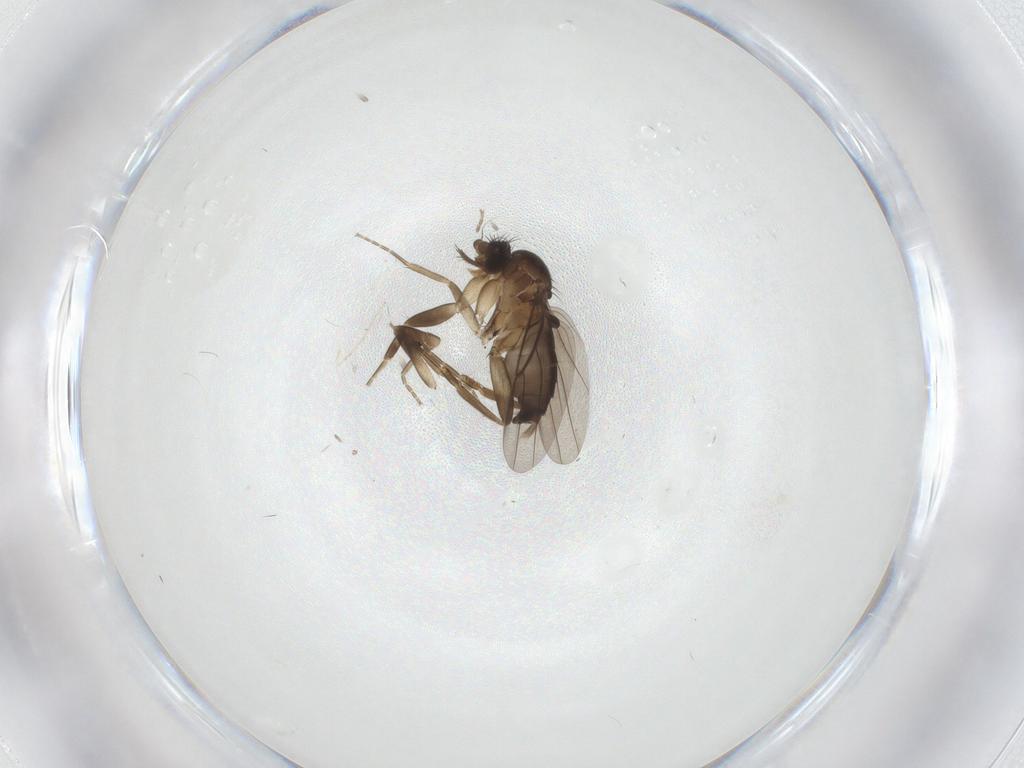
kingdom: Animalia
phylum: Arthropoda
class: Insecta
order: Diptera
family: Phoridae
